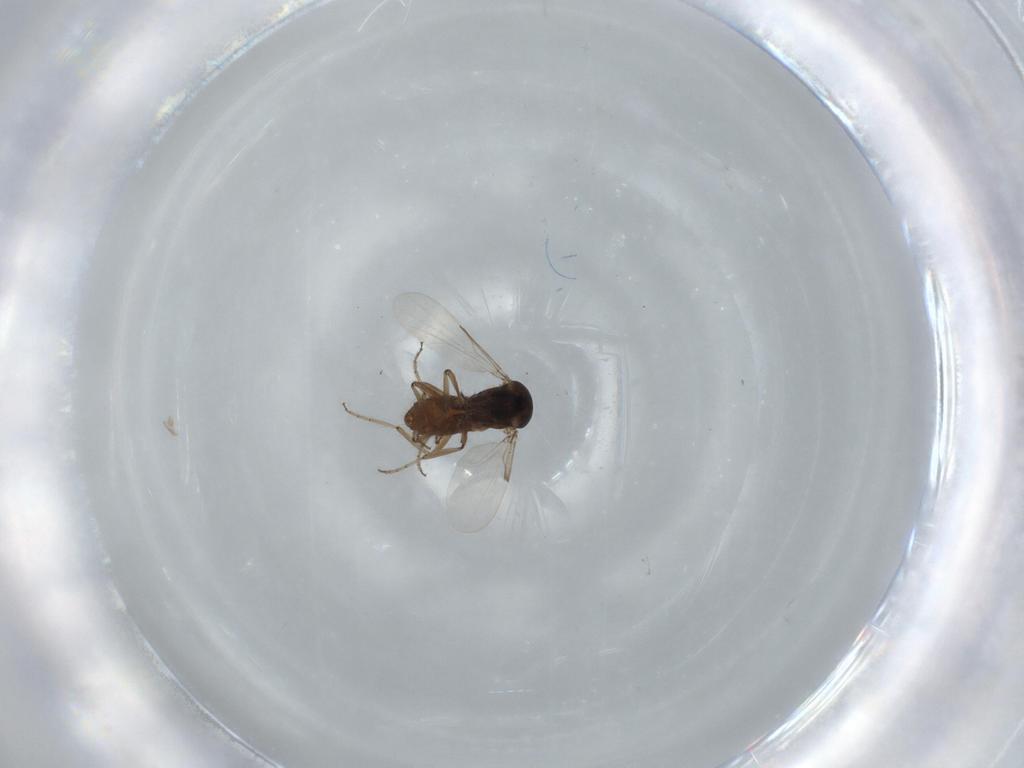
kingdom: Animalia
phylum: Arthropoda
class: Insecta
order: Diptera
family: Ceratopogonidae
